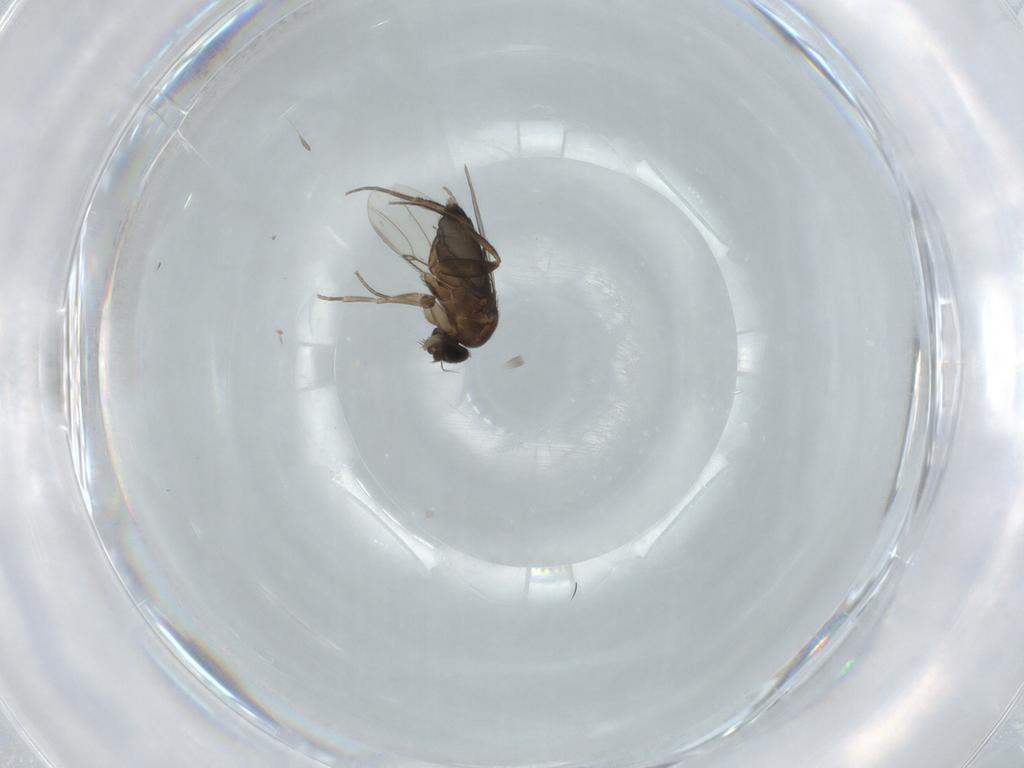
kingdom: Animalia
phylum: Arthropoda
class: Insecta
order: Diptera
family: Phoridae
